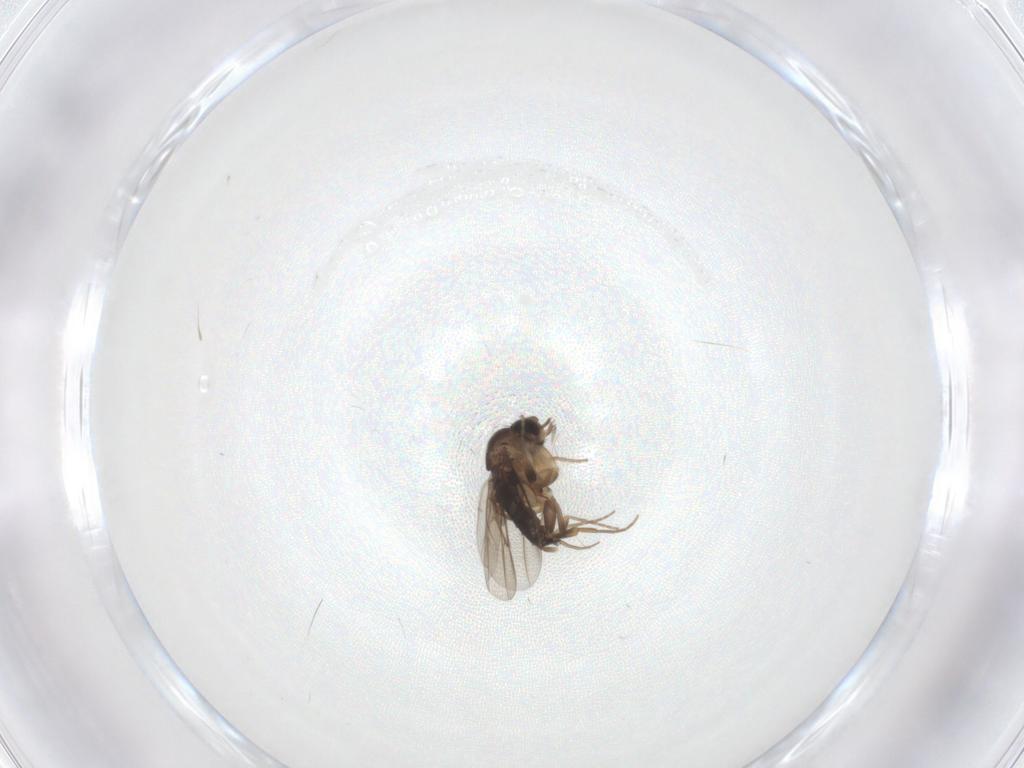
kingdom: Animalia
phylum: Arthropoda
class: Insecta
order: Diptera
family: Phoridae
